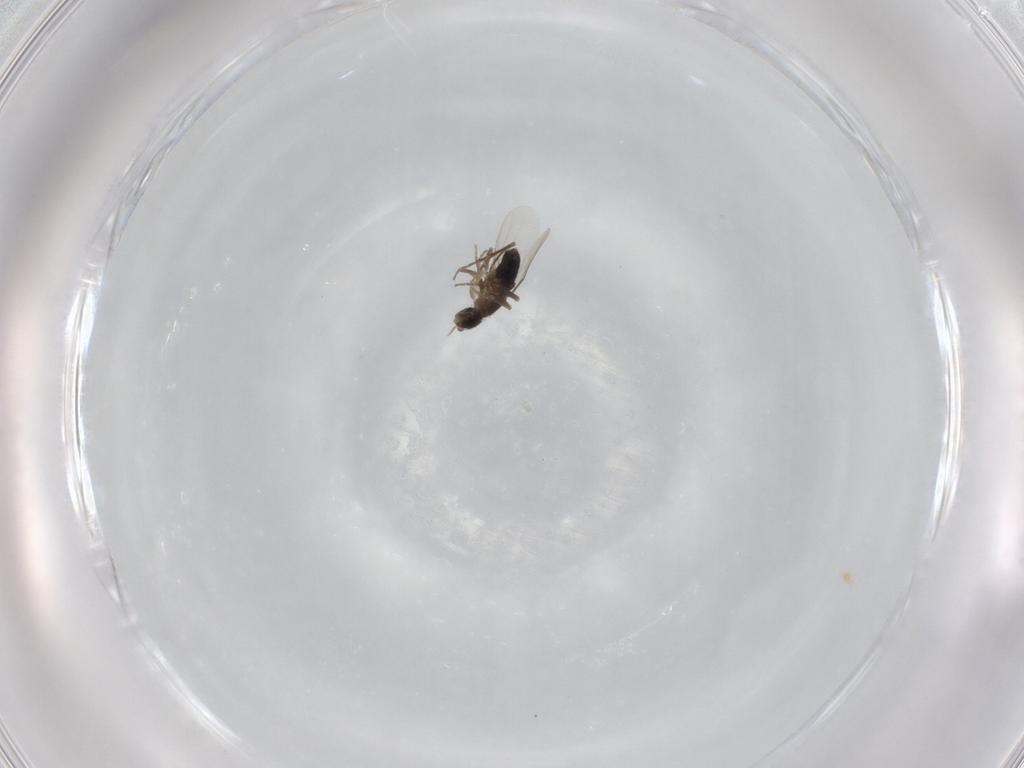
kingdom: Animalia
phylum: Arthropoda
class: Insecta
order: Diptera
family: Phoridae
